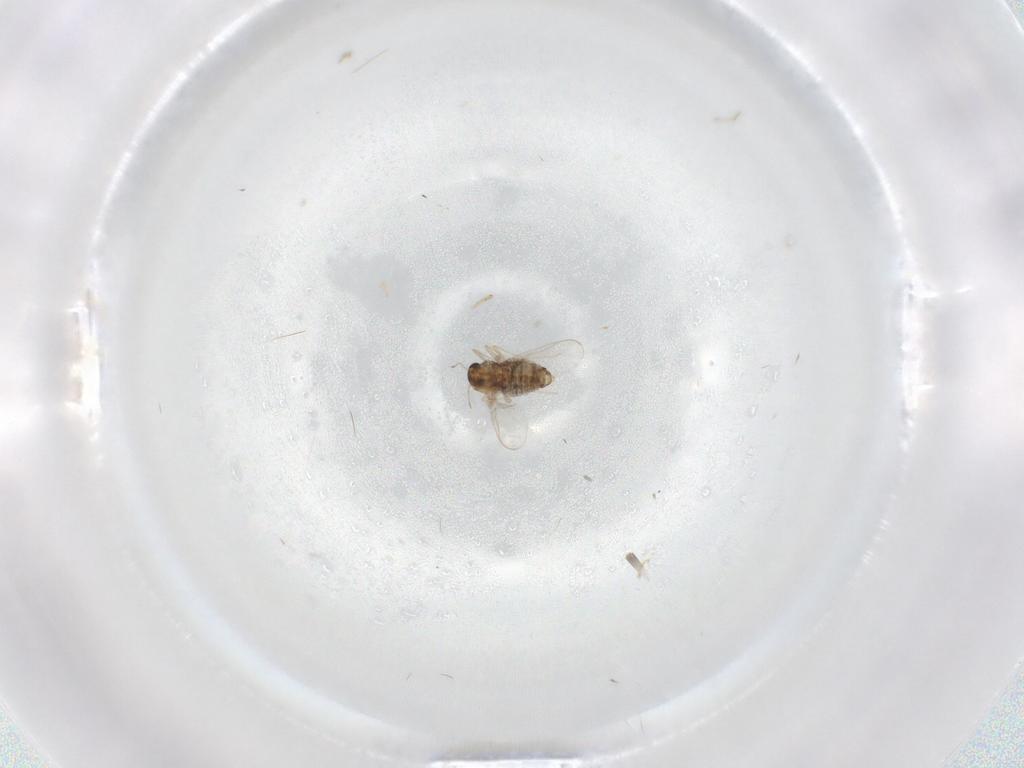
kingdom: Animalia
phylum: Arthropoda
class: Insecta
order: Diptera
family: Chironomidae
